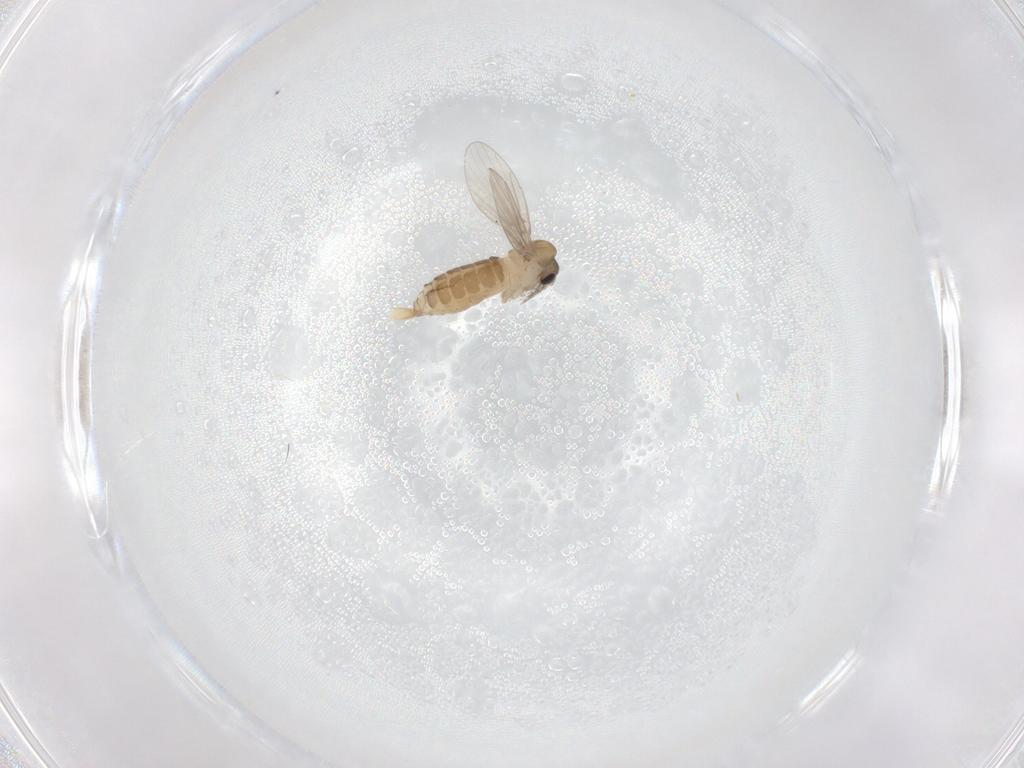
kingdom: Animalia
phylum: Arthropoda
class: Insecta
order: Diptera
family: Psychodidae
